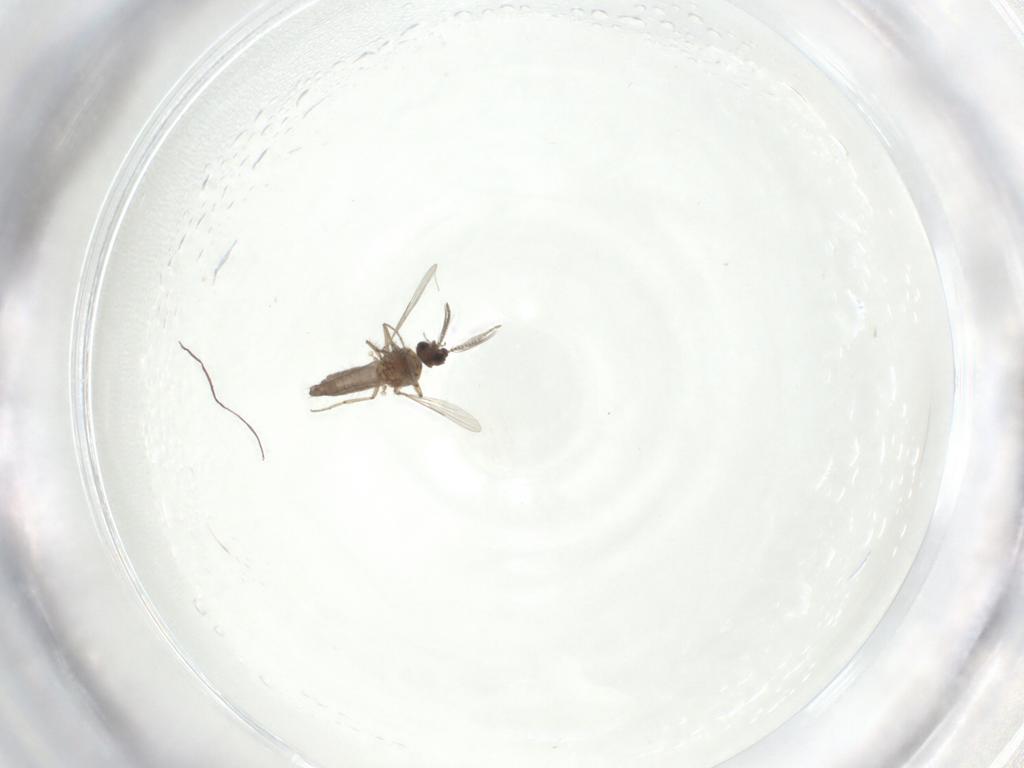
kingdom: Animalia
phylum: Arthropoda
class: Insecta
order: Diptera
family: Ceratopogonidae
